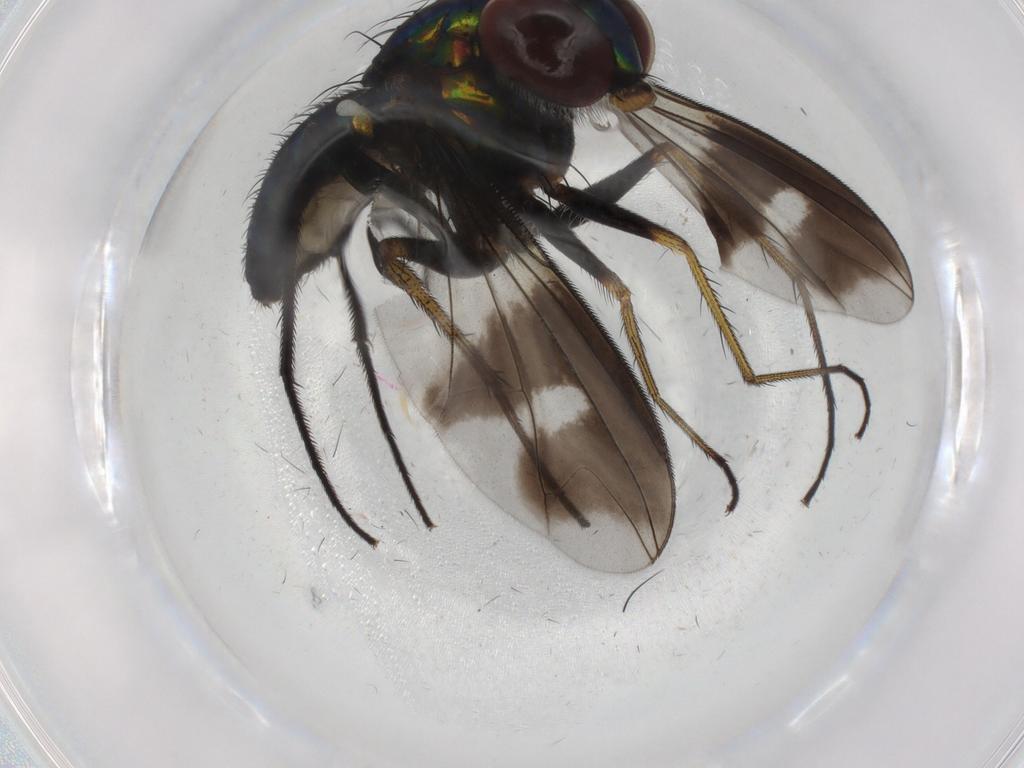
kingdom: Animalia
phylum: Arthropoda
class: Insecta
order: Diptera
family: Dolichopodidae
